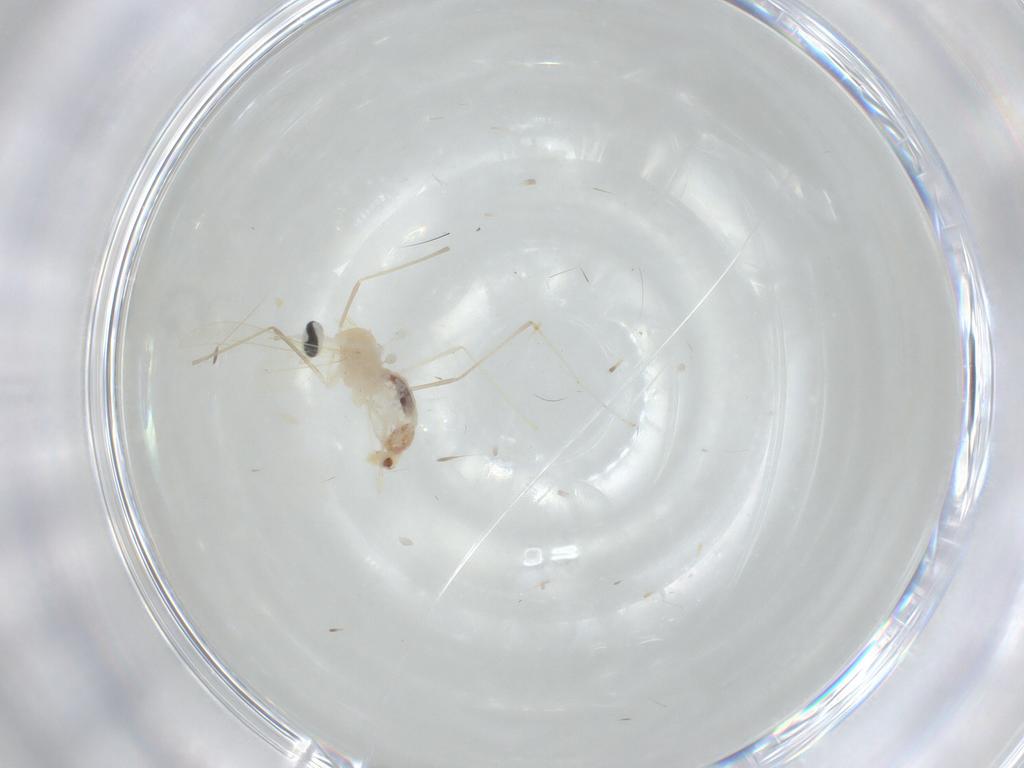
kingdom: Animalia
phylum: Arthropoda
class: Insecta
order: Diptera
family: Cecidomyiidae
